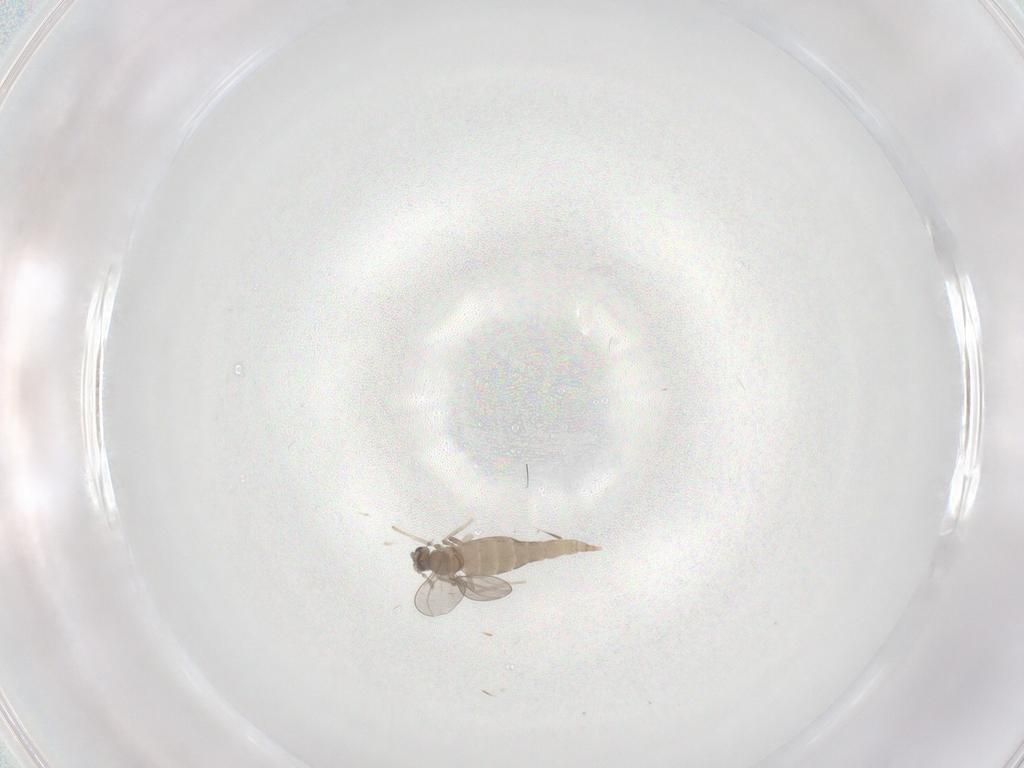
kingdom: Animalia
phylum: Arthropoda
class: Insecta
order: Diptera
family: Cecidomyiidae
